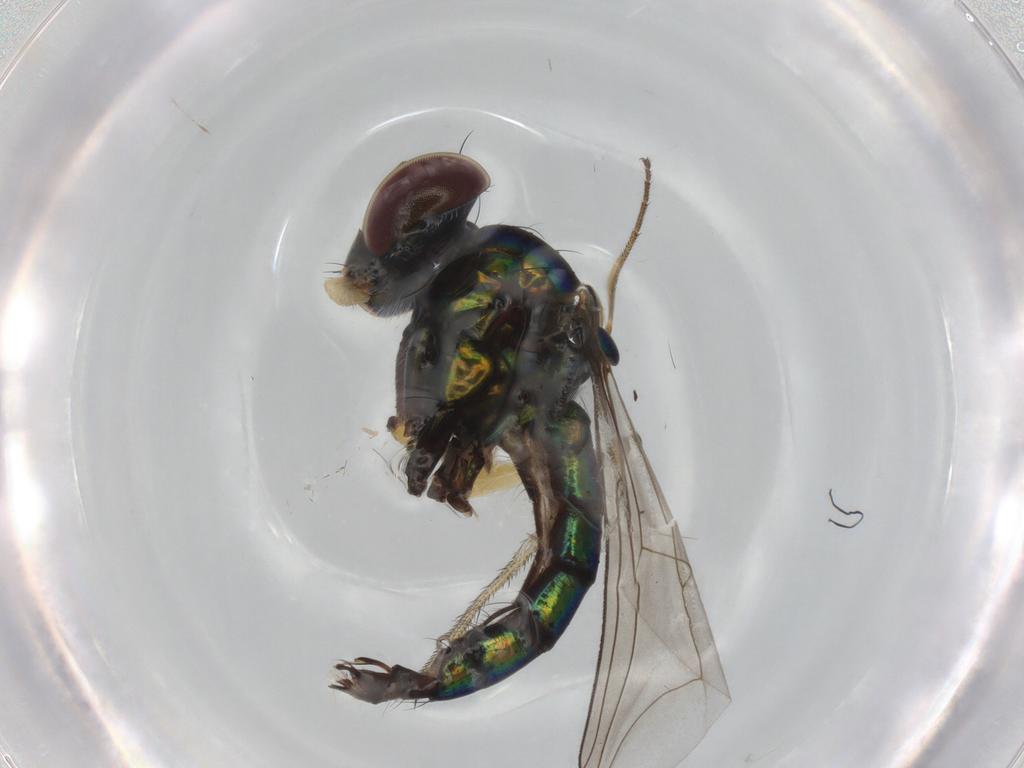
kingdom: Animalia
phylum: Arthropoda
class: Insecta
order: Diptera
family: Dolichopodidae
